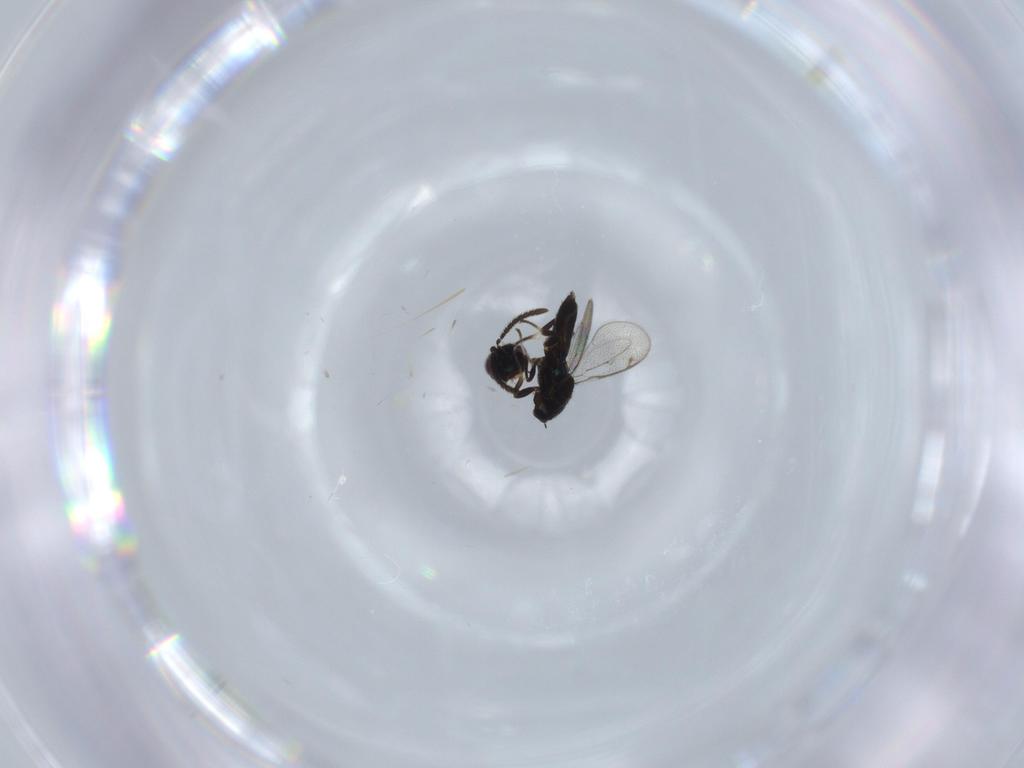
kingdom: Animalia
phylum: Arthropoda
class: Insecta
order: Hymenoptera
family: Eupelmidae
